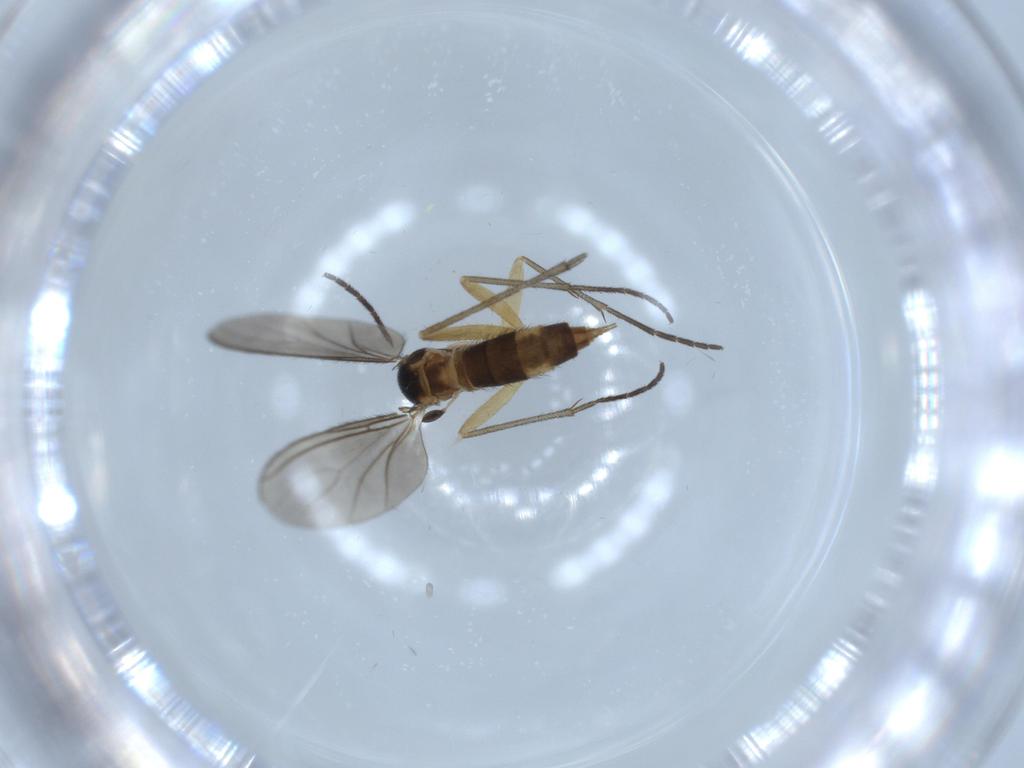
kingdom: Animalia
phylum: Arthropoda
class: Insecta
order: Diptera
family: Sciaridae
